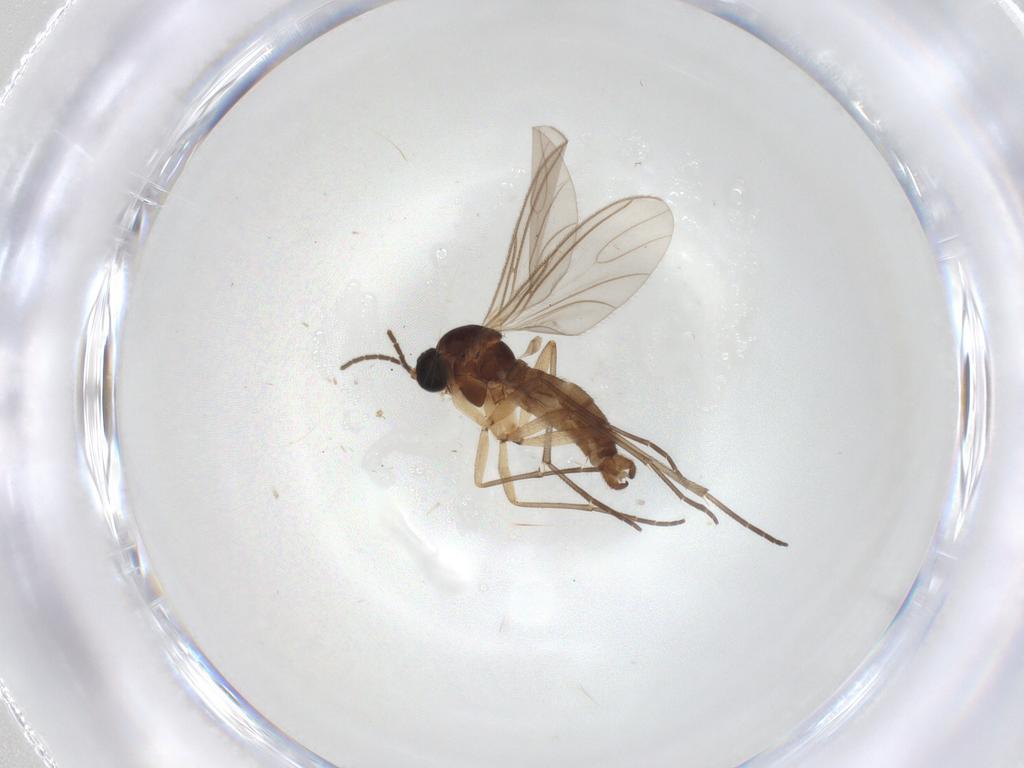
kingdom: Animalia
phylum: Arthropoda
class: Insecta
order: Diptera
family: Sciaridae
